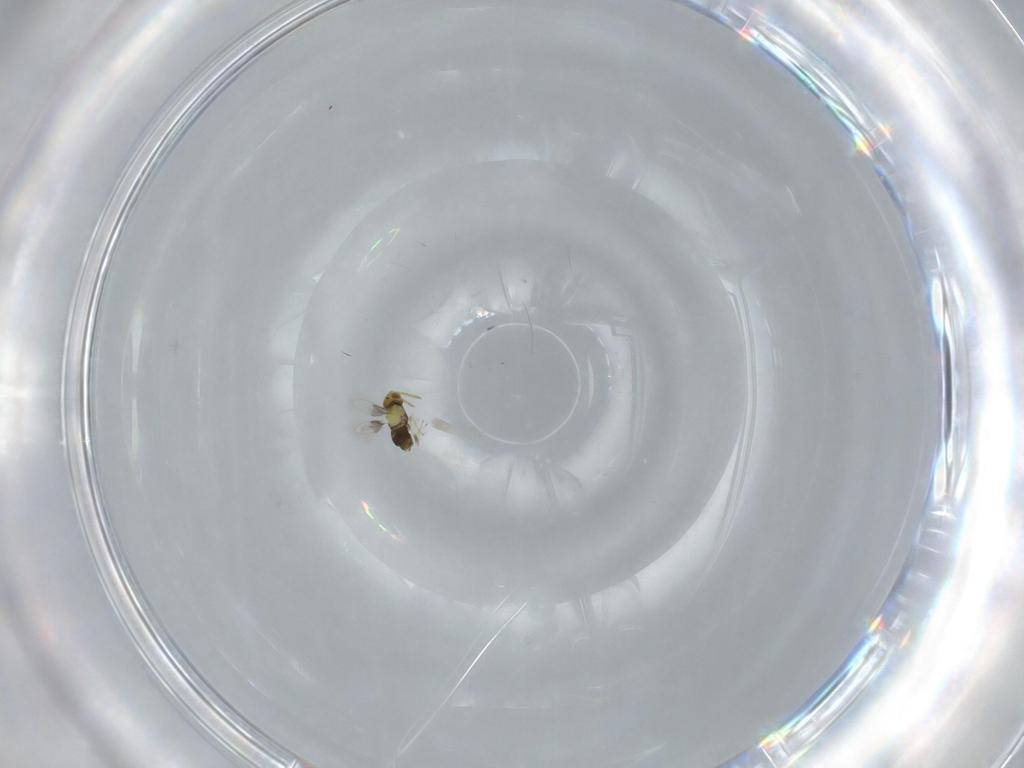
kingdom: Animalia
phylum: Arthropoda
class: Insecta
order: Hymenoptera
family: Aphelinidae
